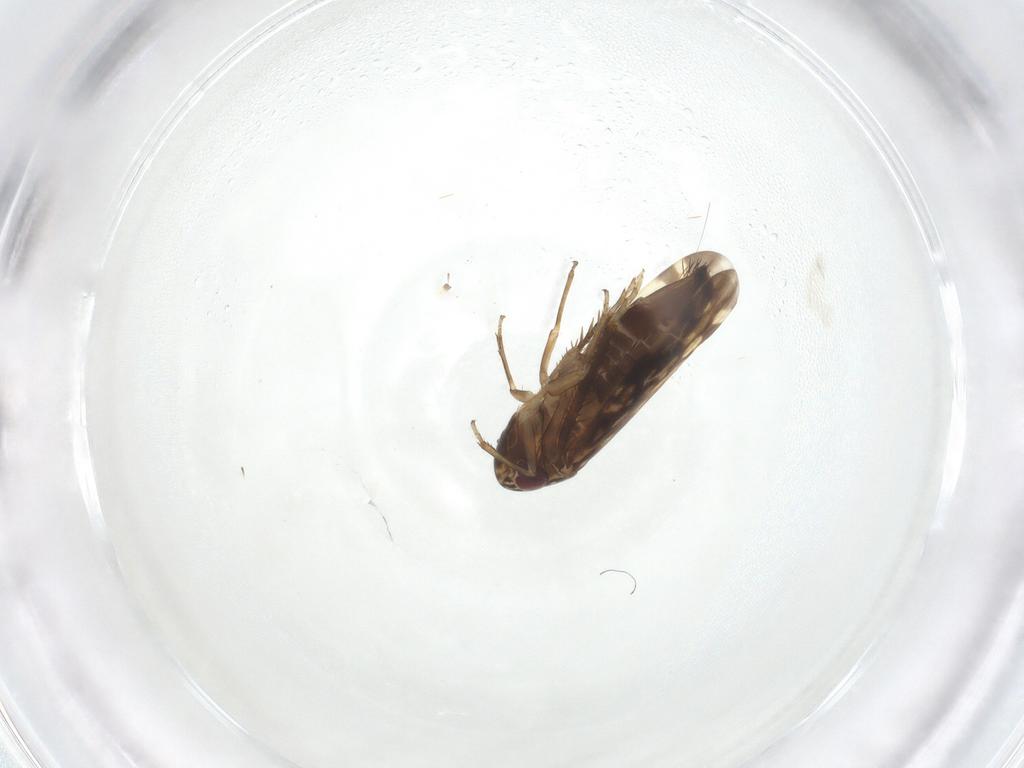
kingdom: Animalia
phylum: Arthropoda
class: Insecta
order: Hemiptera
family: Cicadellidae
